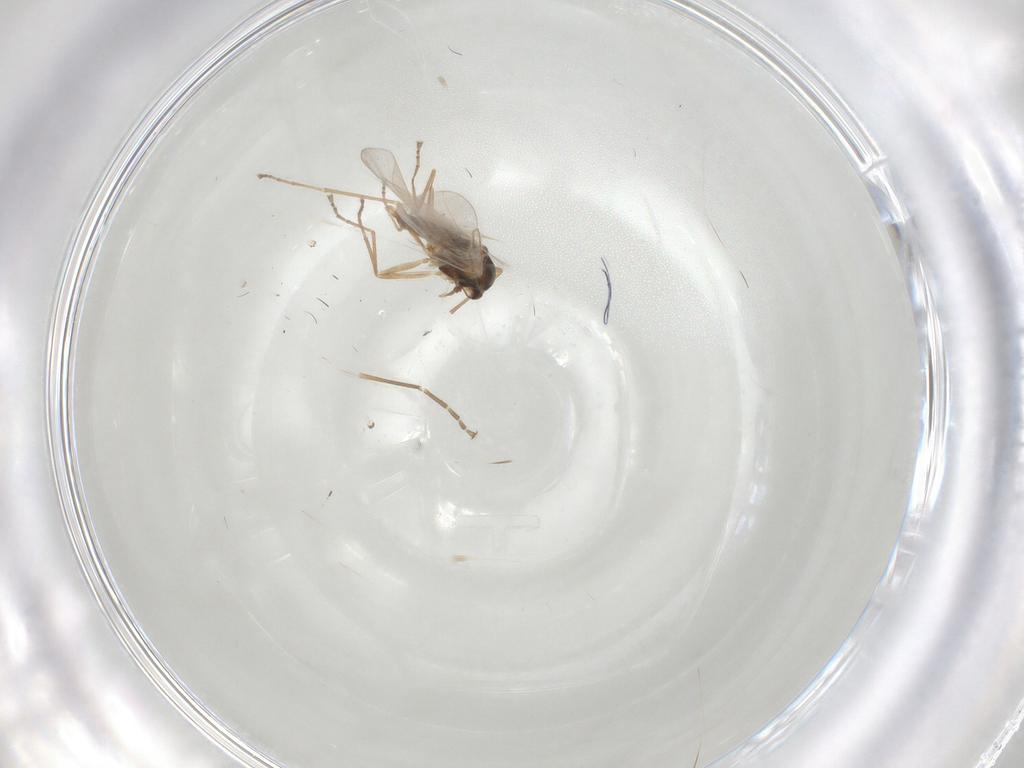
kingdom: Animalia
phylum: Arthropoda
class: Insecta
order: Diptera
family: Cecidomyiidae
